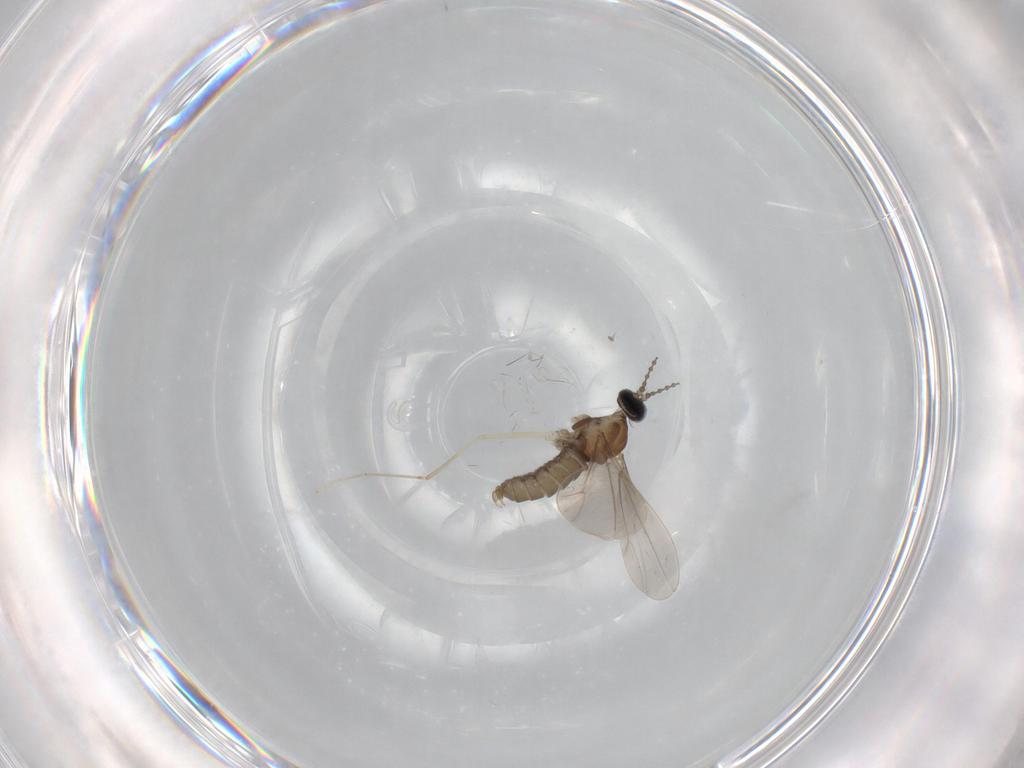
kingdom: Animalia
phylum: Arthropoda
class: Insecta
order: Diptera
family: Cecidomyiidae
